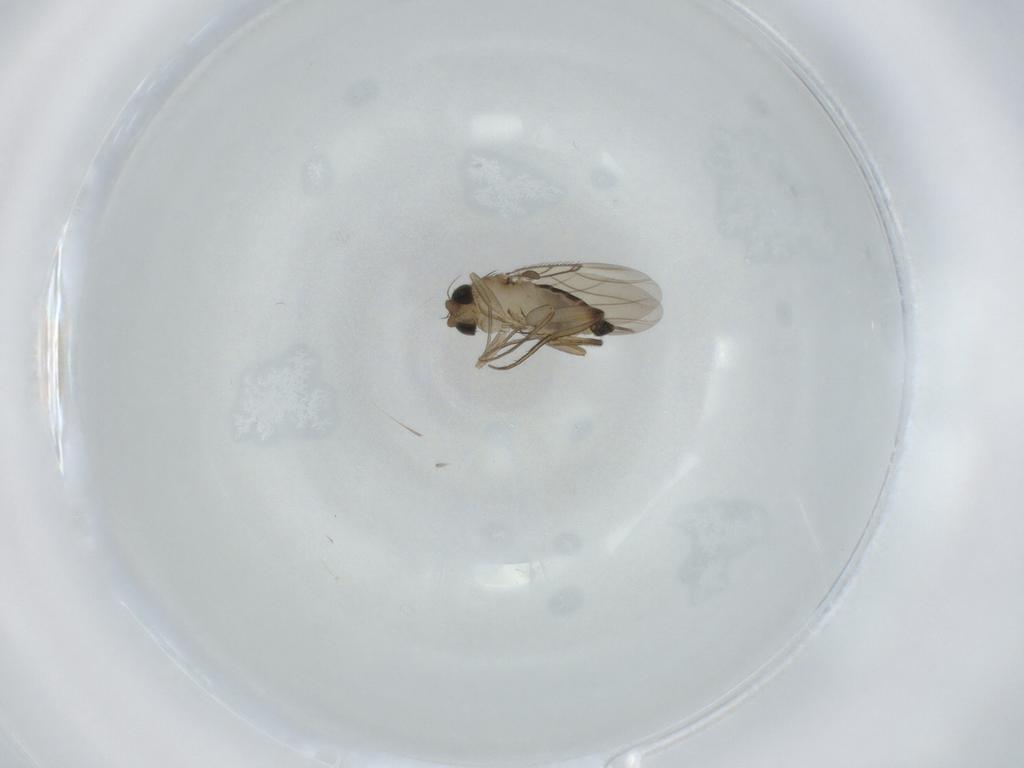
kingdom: Animalia
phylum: Arthropoda
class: Insecta
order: Diptera
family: Phoridae
